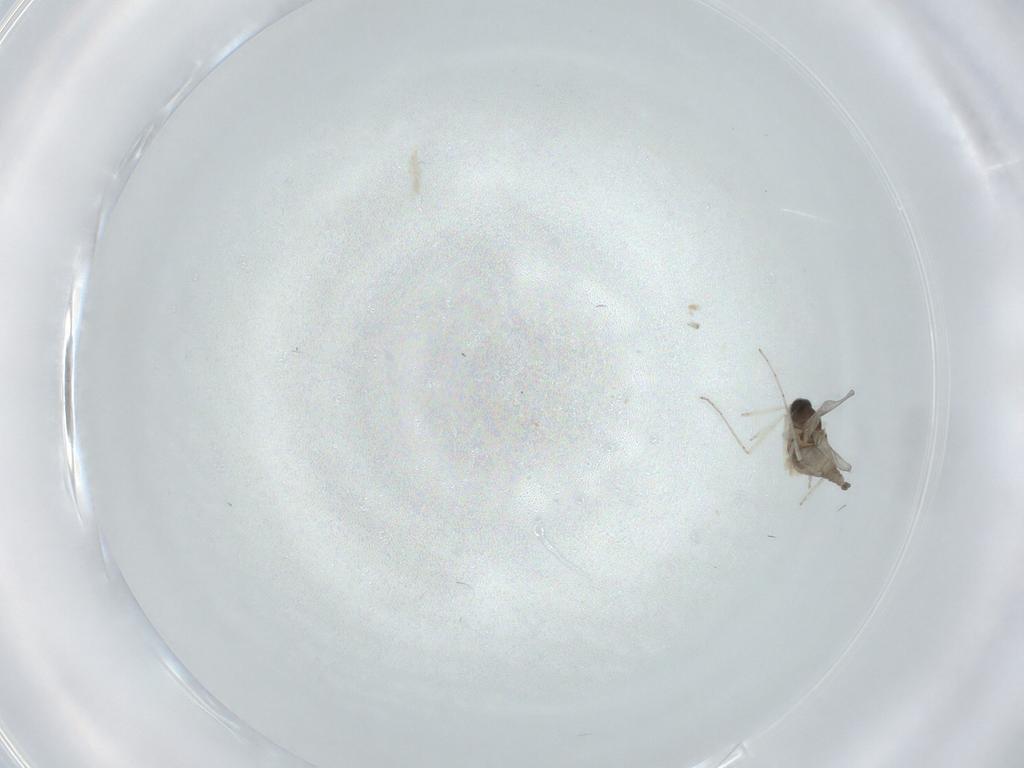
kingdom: Animalia
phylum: Arthropoda
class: Insecta
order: Diptera
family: Cecidomyiidae
